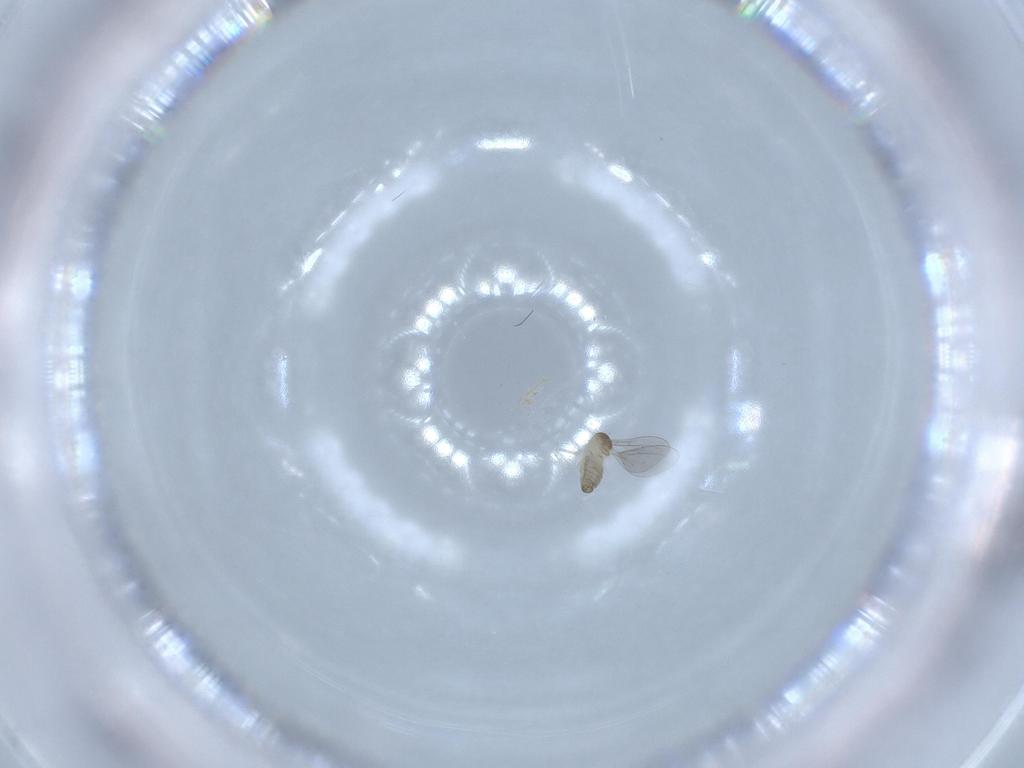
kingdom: Animalia
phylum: Arthropoda
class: Insecta
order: Diptera
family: Cecidomyiidae
